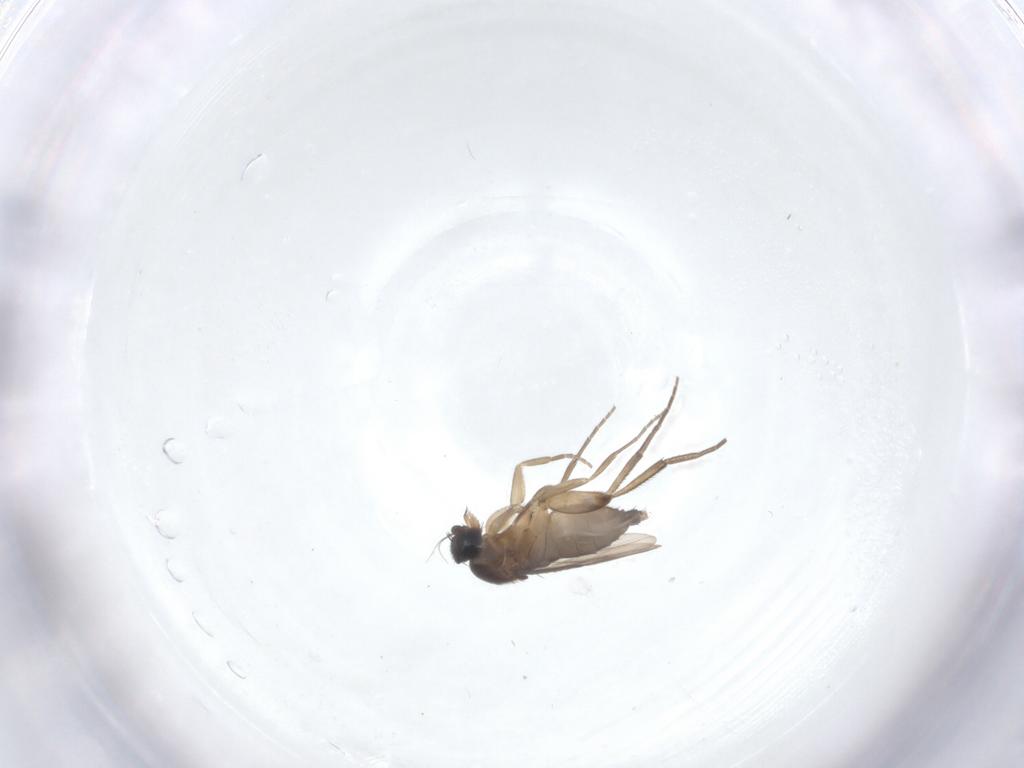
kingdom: Animalia
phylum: Arthropoda
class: Insecta
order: Diptera
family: Phoridae
